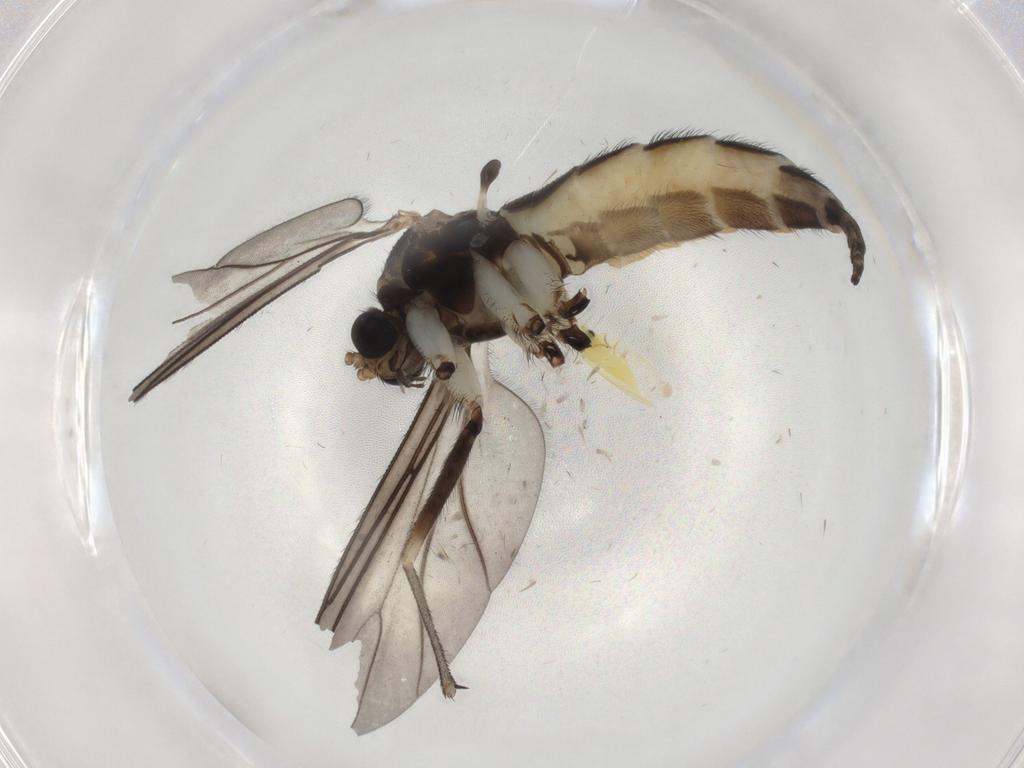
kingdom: Animalia
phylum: Arthropoda
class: Insecta
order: Diptera
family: Sciaridae
